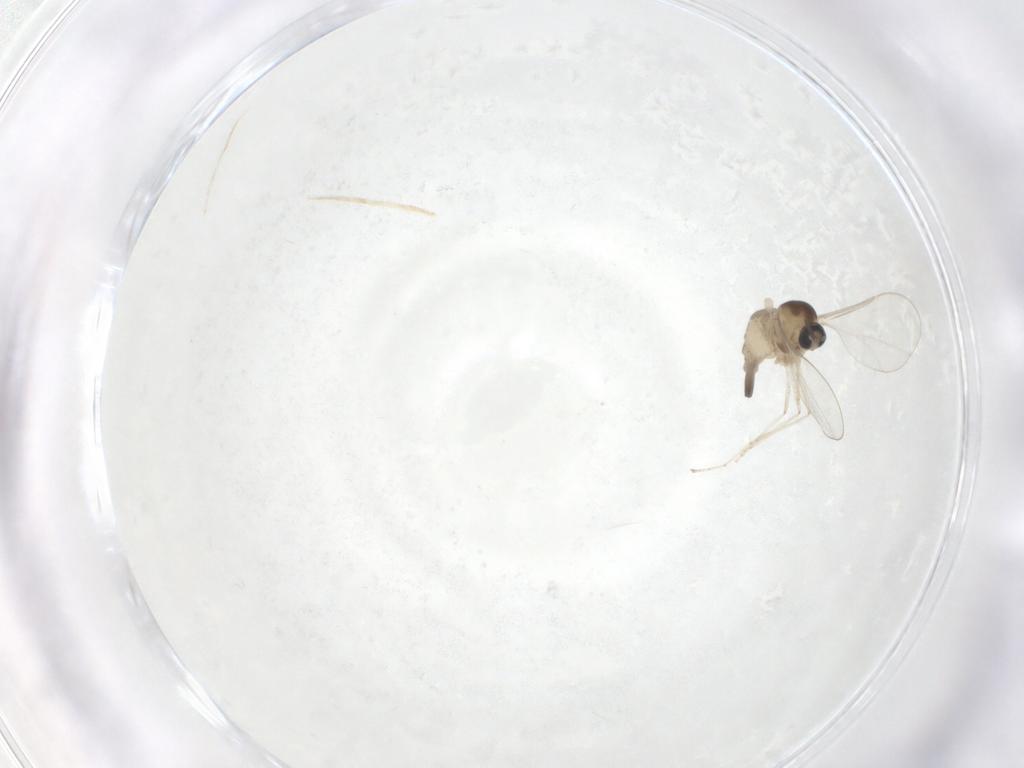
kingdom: Animalia
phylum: Arthropoda
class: Insecta
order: Diptera
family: Cecidomyiidae
